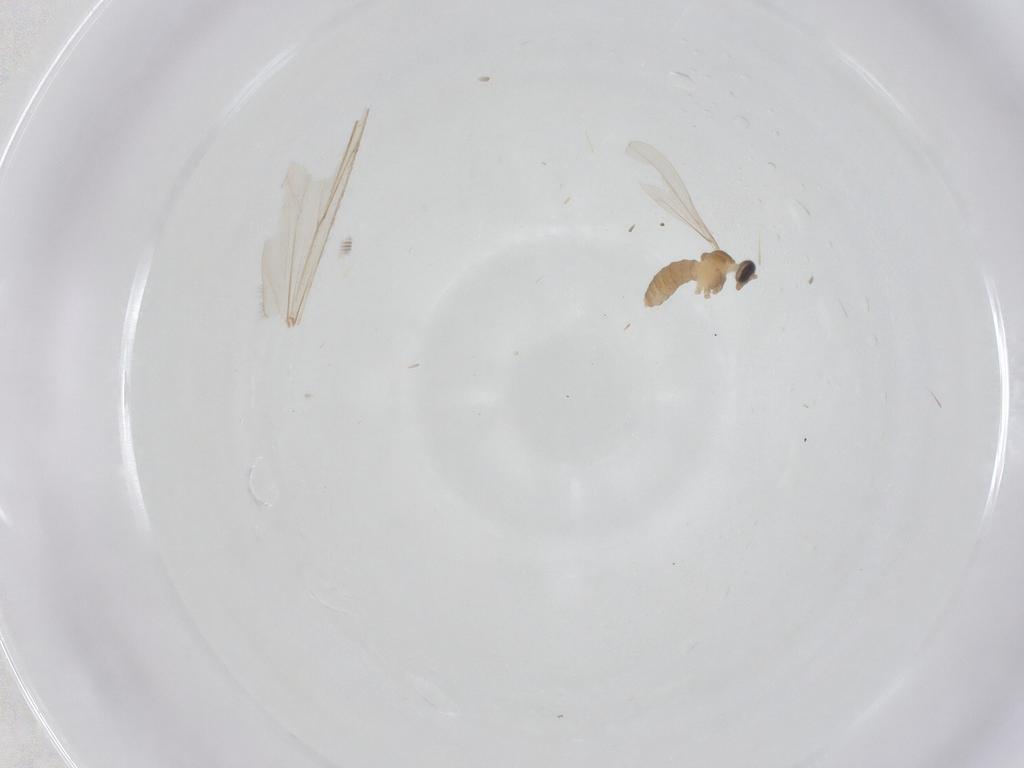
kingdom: Animalia
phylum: Arthropoda
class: Insecta
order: Diptera
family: Cecidomyiidae
